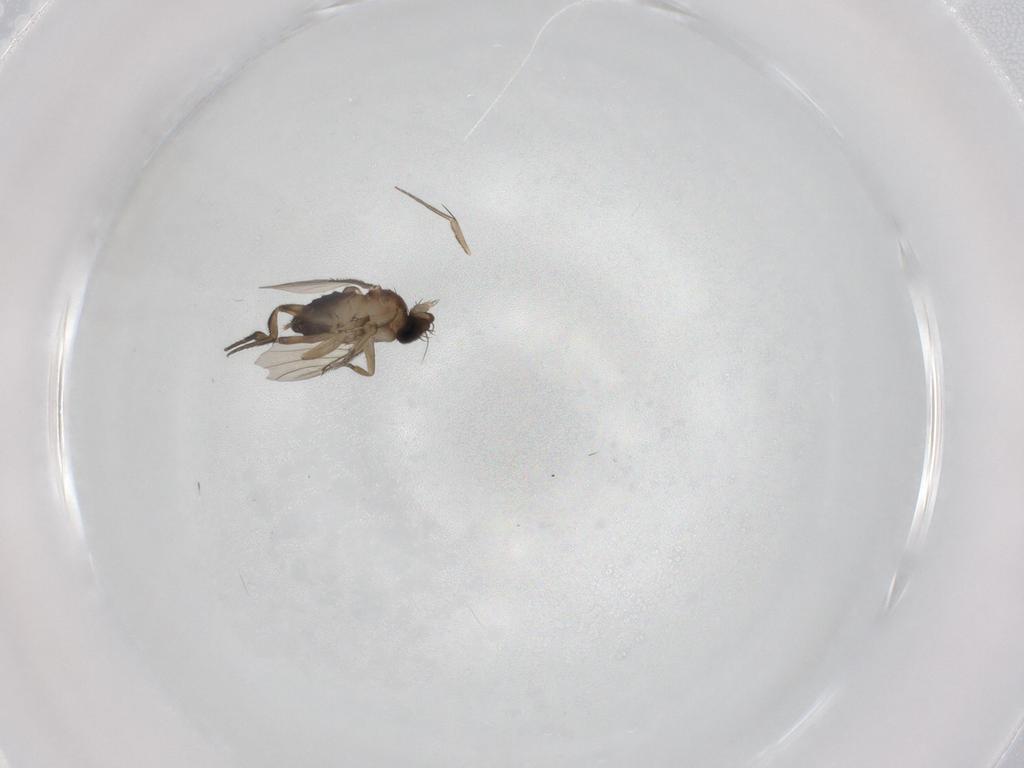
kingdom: Animalia
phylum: Arthropoda
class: Insecta
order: Diptera
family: Phoridae
